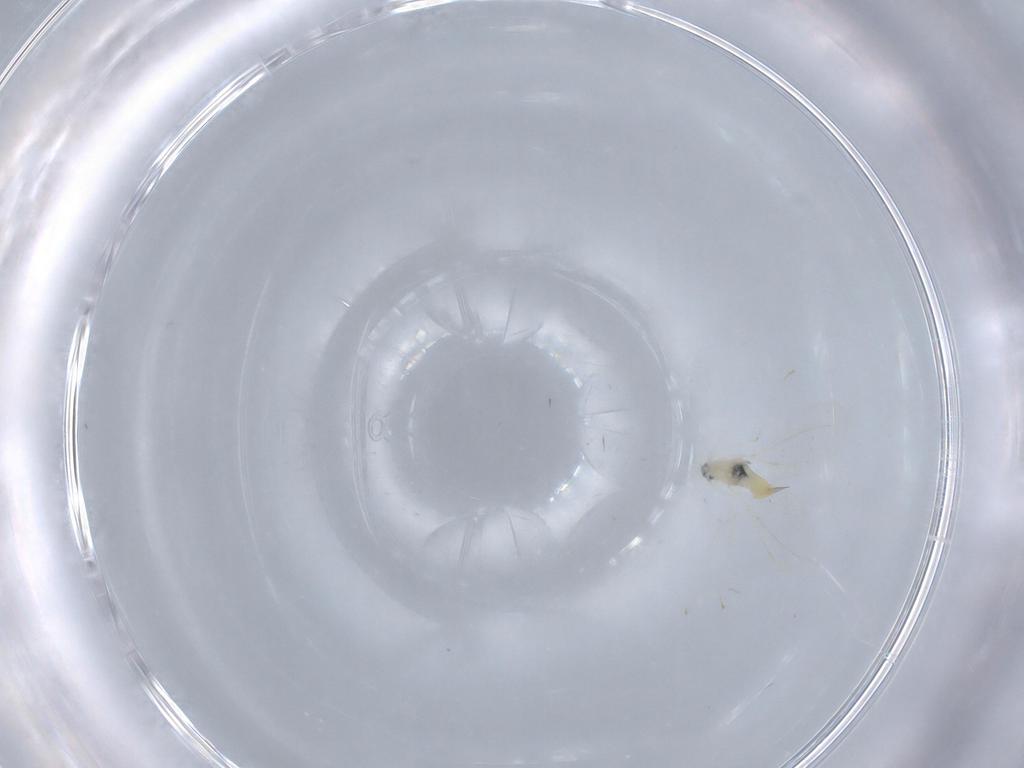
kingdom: Animalia
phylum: Arthropoda
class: Insecta
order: Diptera
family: Cecidomyiidae
